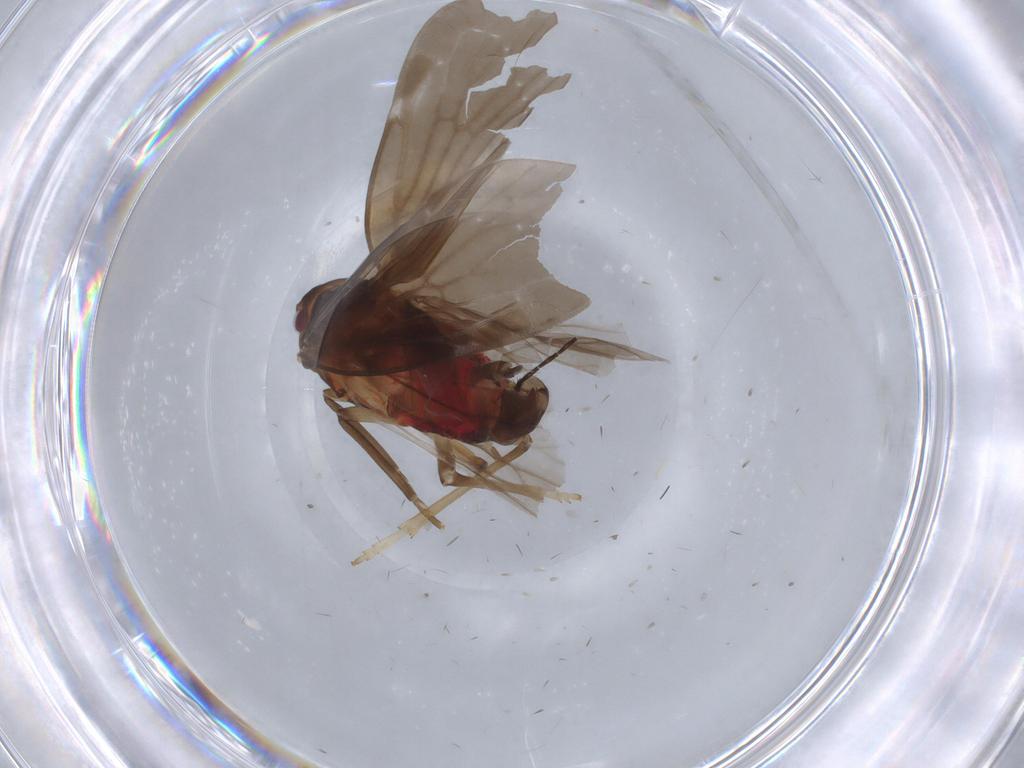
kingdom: Animalia
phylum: Arthropoda
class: Insecta
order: Hemiptera
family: Derbidae
